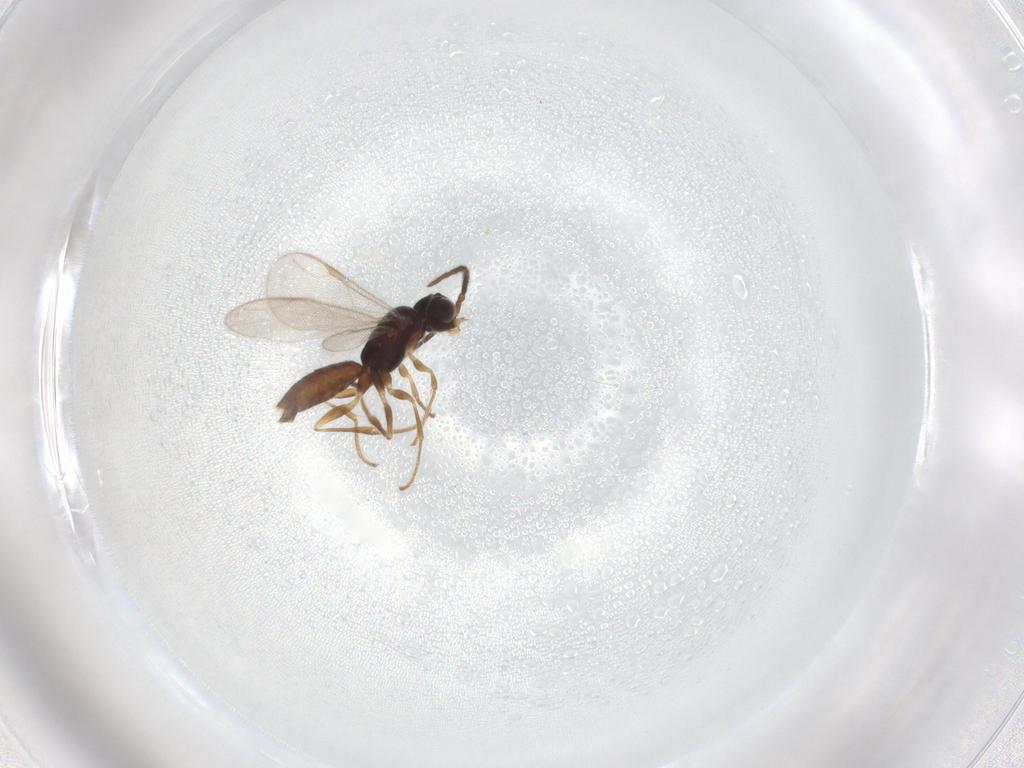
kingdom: Animalia
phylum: Arthropoda
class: Insecta
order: Hymenoptera
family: Dryinidae
